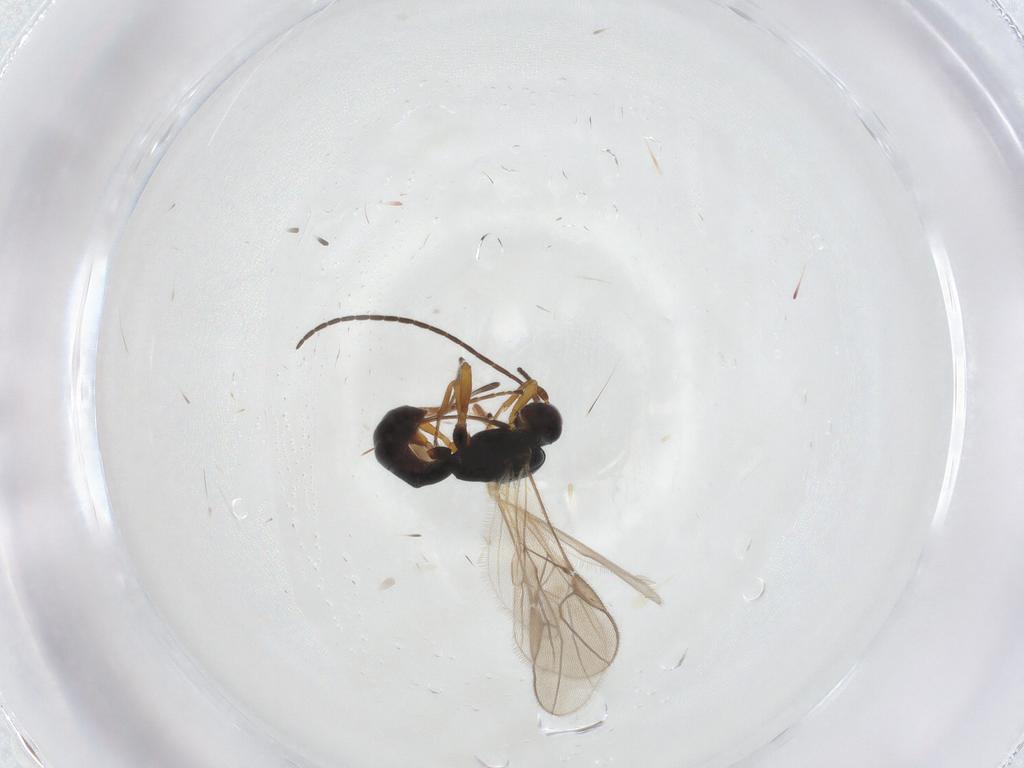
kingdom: Animalia
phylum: Arthropoda
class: Insecta
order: Hymenoptera
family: Braconidae
